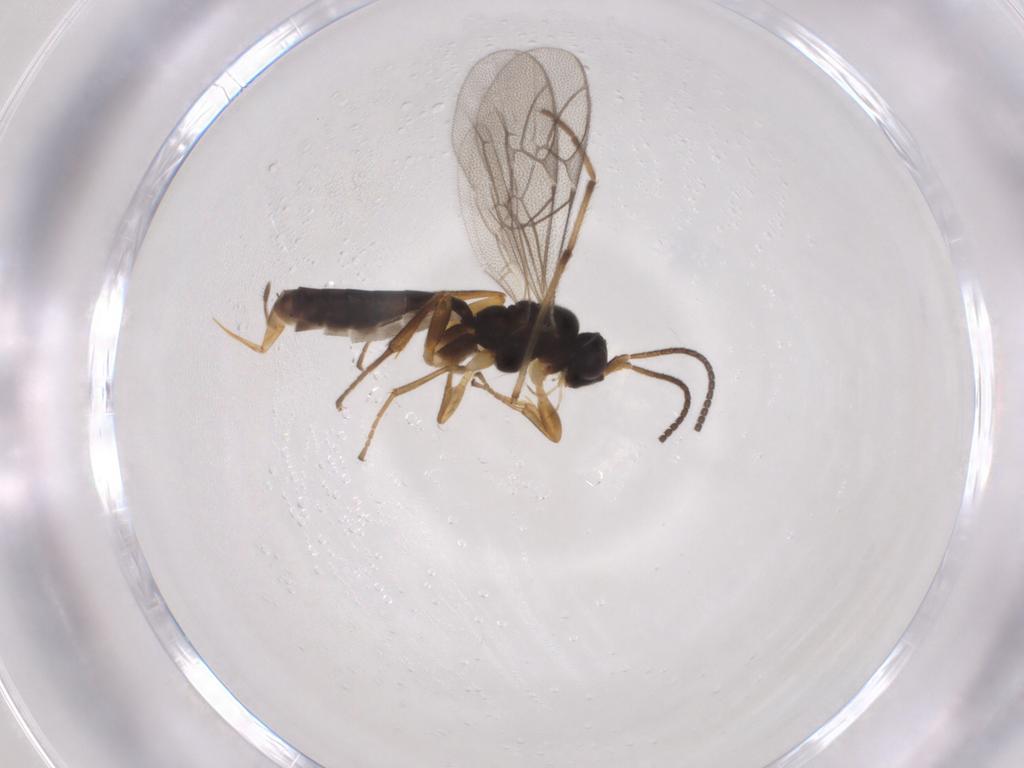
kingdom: Animalia
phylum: Arthropoda
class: Insecta
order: Hymenoptera
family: Ichneumonidae
